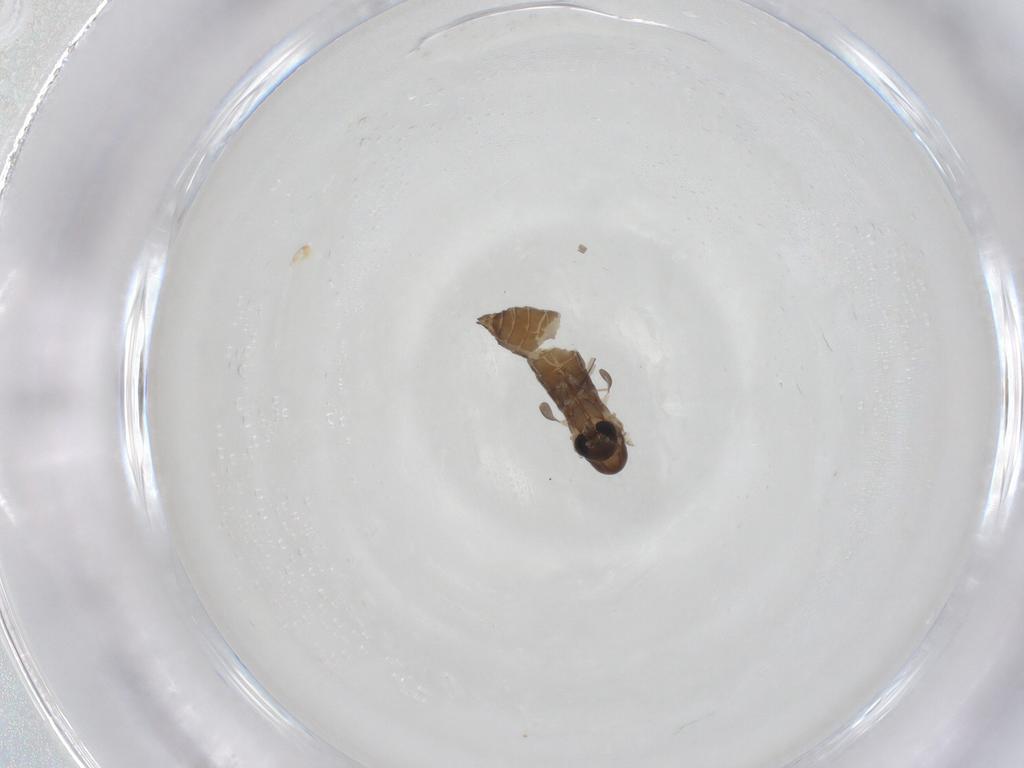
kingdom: Animalia
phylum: Arthropoda
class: Insecta
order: Diptera
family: Psychodidae
